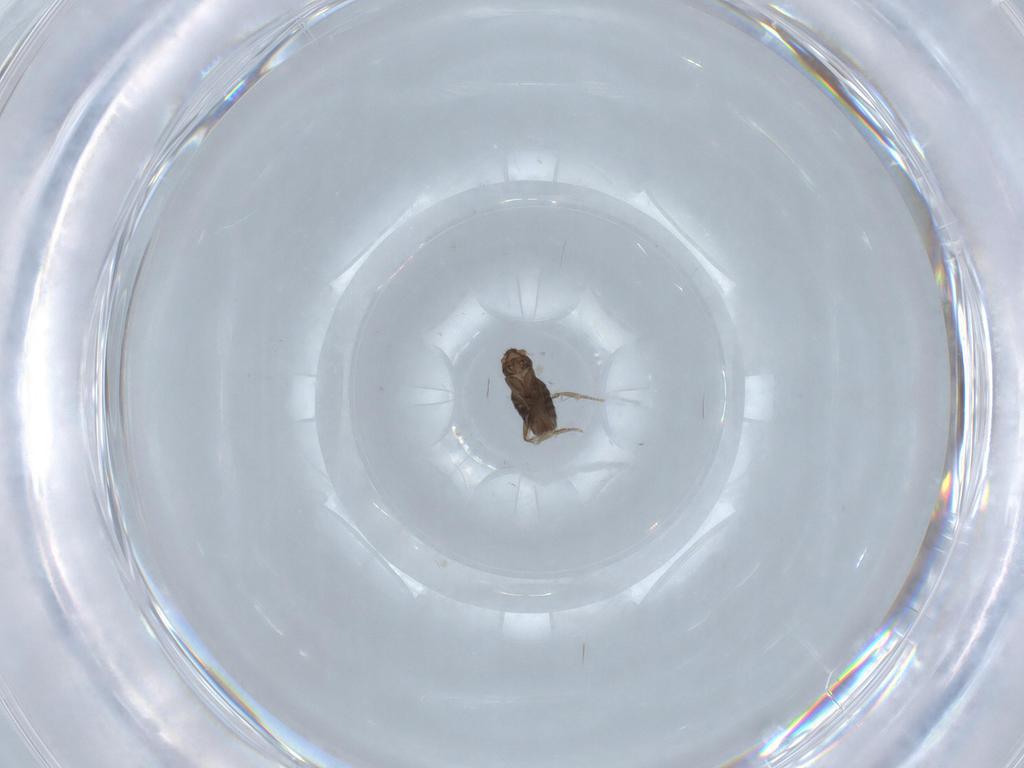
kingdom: Animalia
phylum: Arthropoda
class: Insecta
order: Diptera
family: Chironomidae
